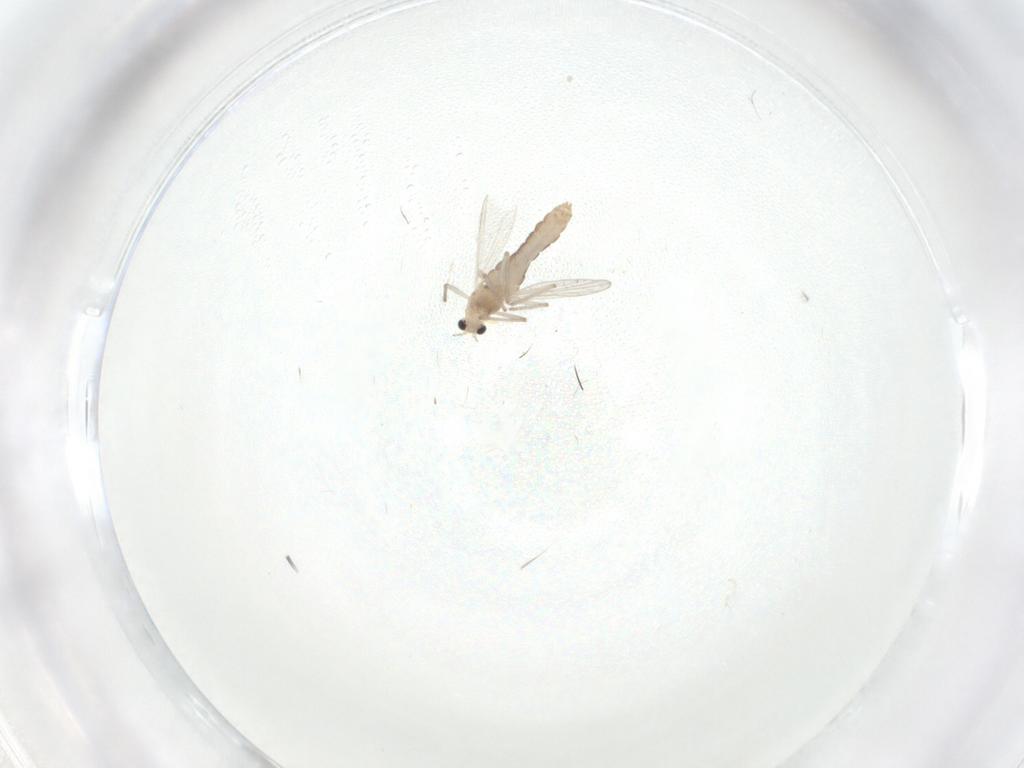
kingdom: Animalia
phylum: Arthropoda
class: Insecta
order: Diptera
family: Chironomidae
